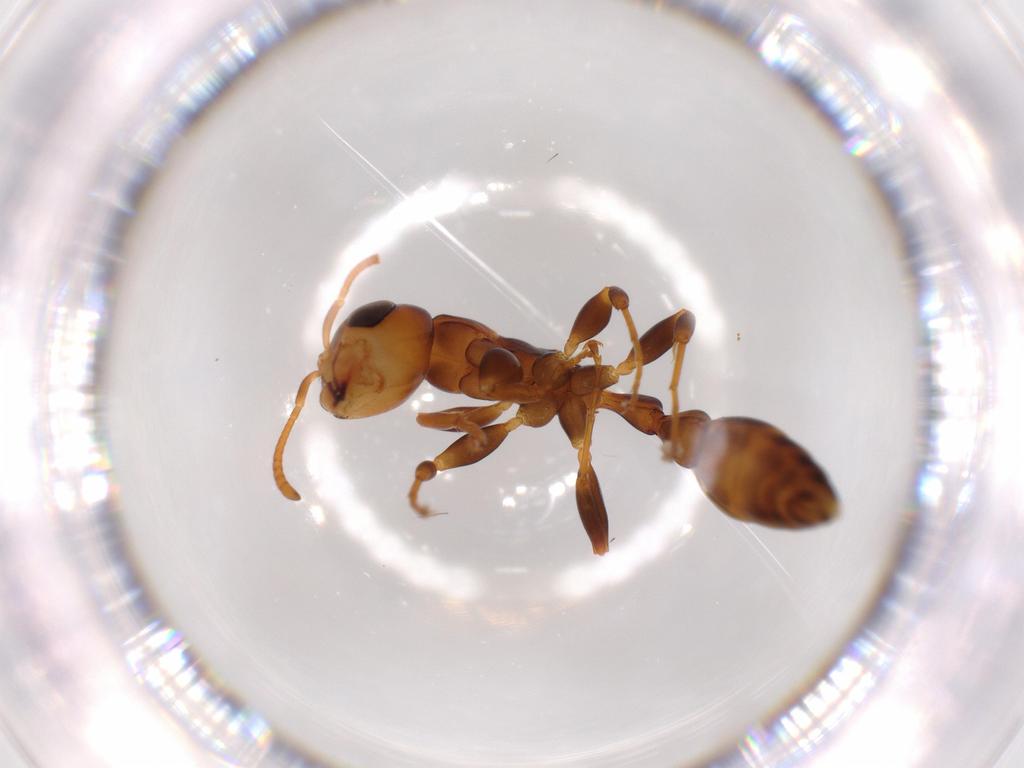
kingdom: Animalia
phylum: Arthropoda
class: Insecta
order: Hymenoptera
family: Formicidae
